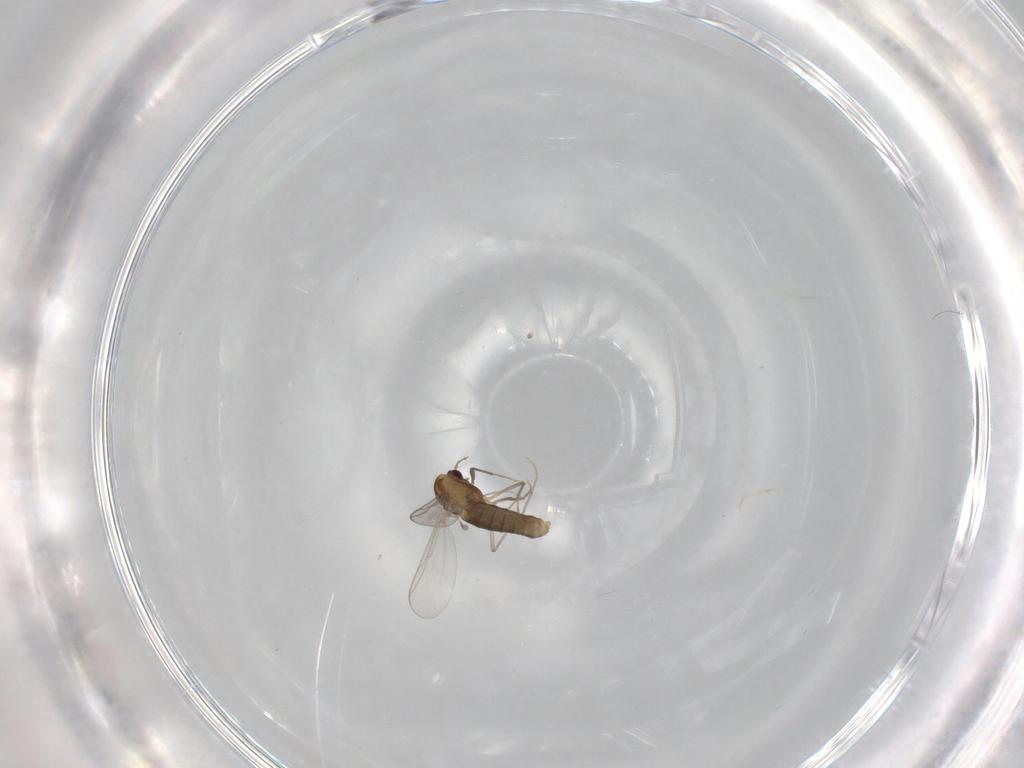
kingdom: Animalia
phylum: Arthropoda
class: Insecta
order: Diptera
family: Chironomidae
